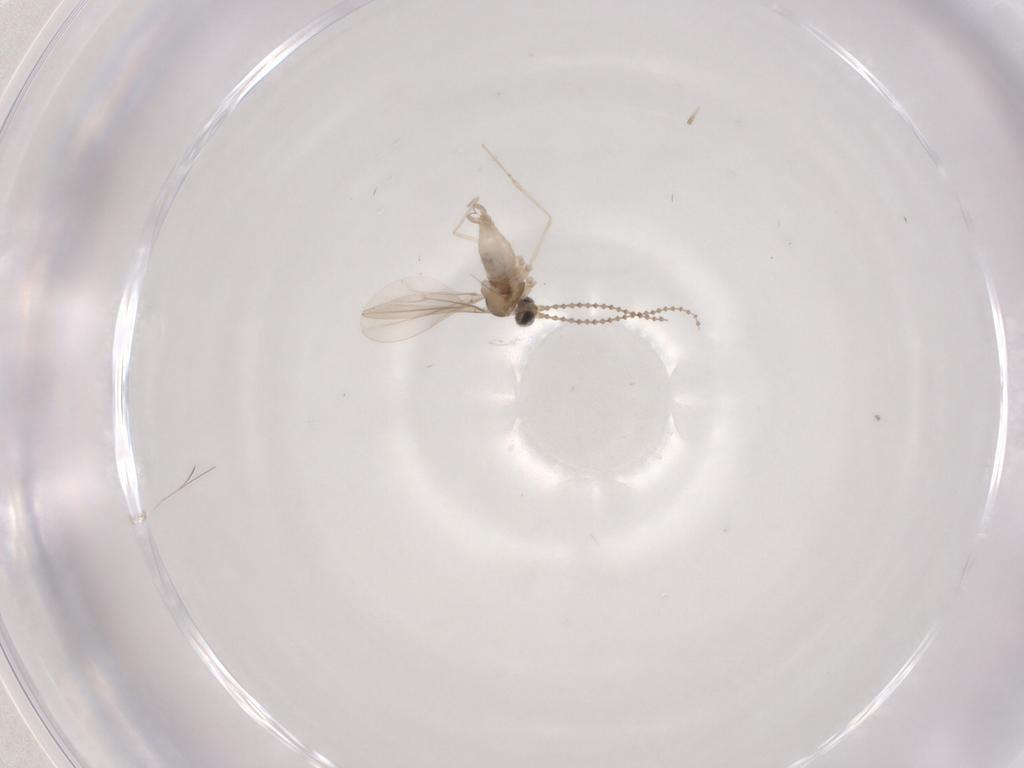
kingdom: Animalia
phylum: Arthropoda
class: Insecta
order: Diptera
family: Cecidomyiidae
